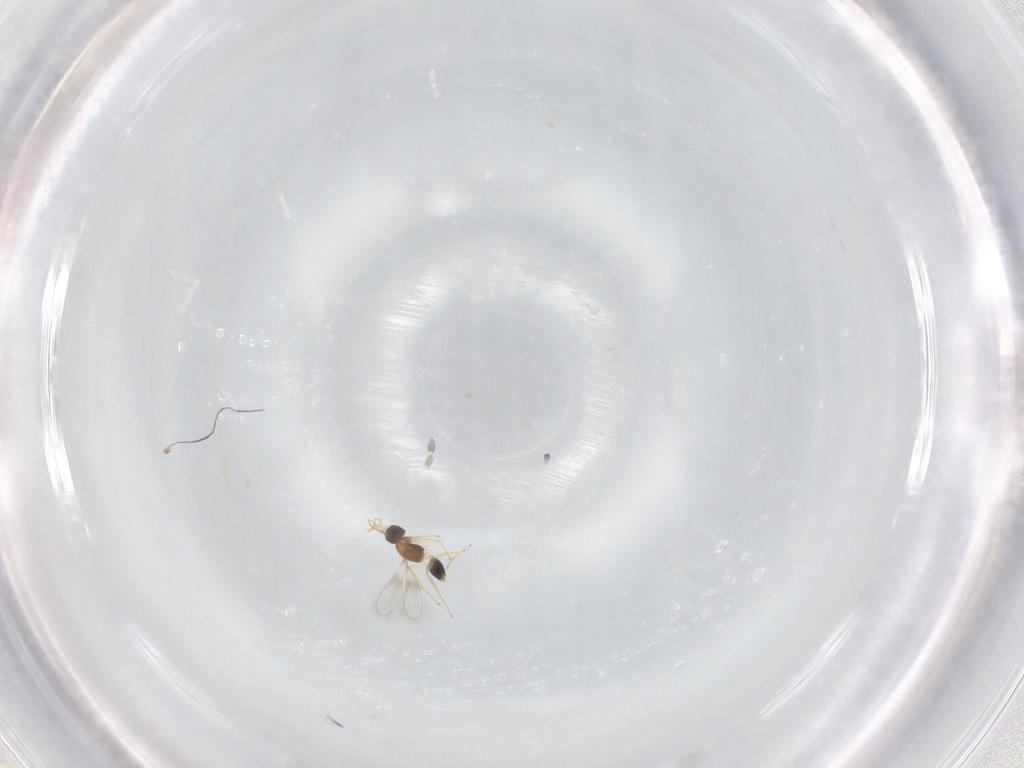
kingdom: Animalia
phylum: Arthropoda
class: Insecta
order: Hymenoptera
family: Mymaridae
